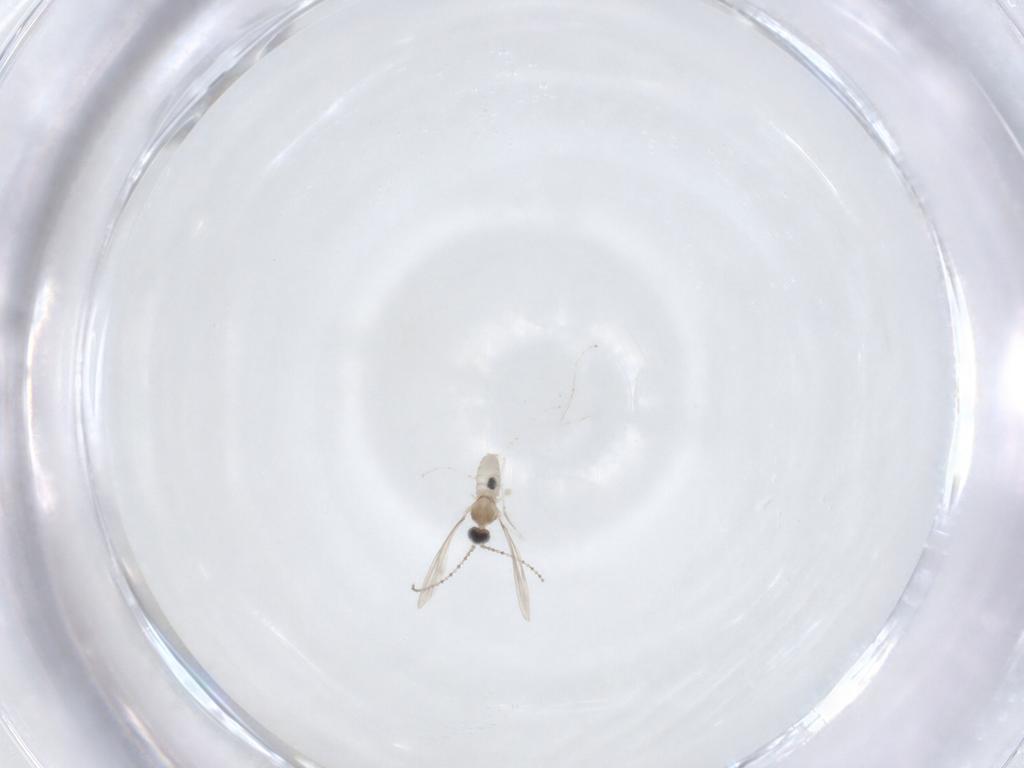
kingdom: Animalia
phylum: Arthropoda
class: Insecta
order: Diptera
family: Cecidomyiidae
